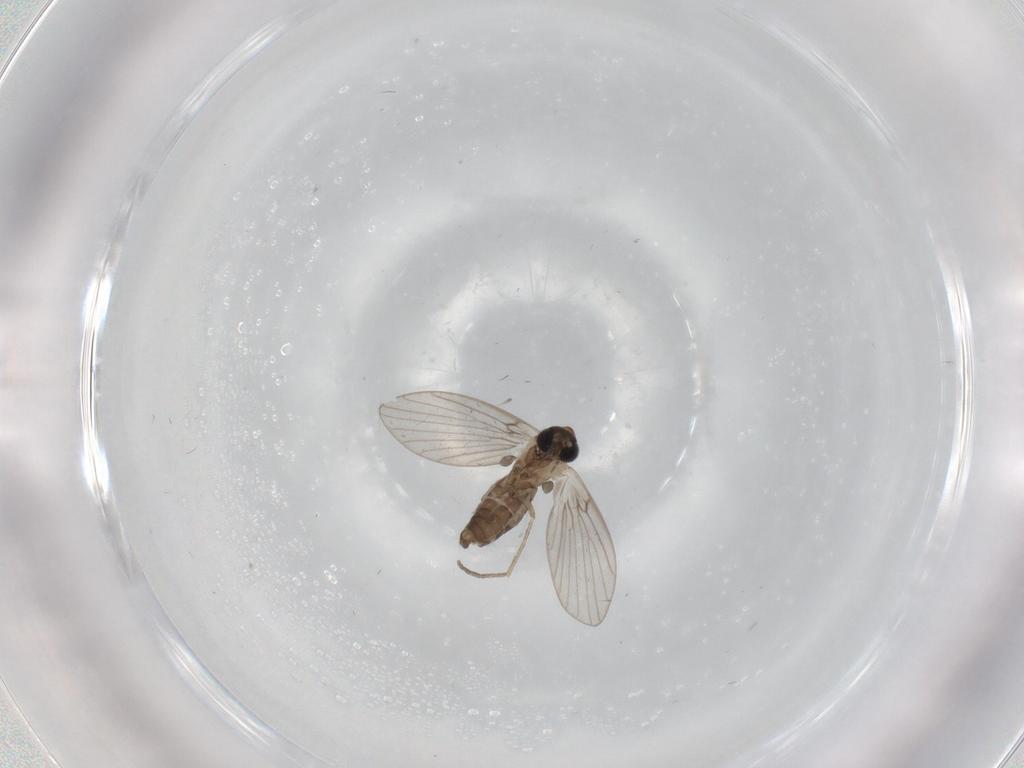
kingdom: Animalia
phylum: Arthropoda
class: Insecta
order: Diptera
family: Psychodidae
